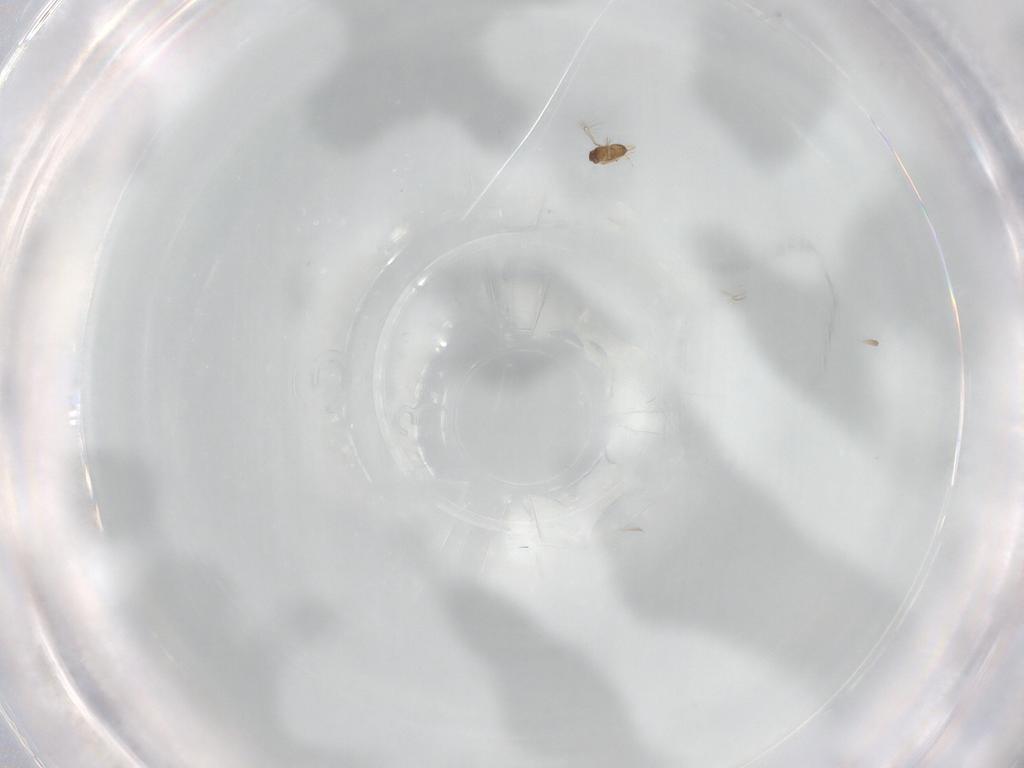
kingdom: Animalia
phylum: Arthropoda
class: Insecta
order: Hymenoptera
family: Mymaridae
